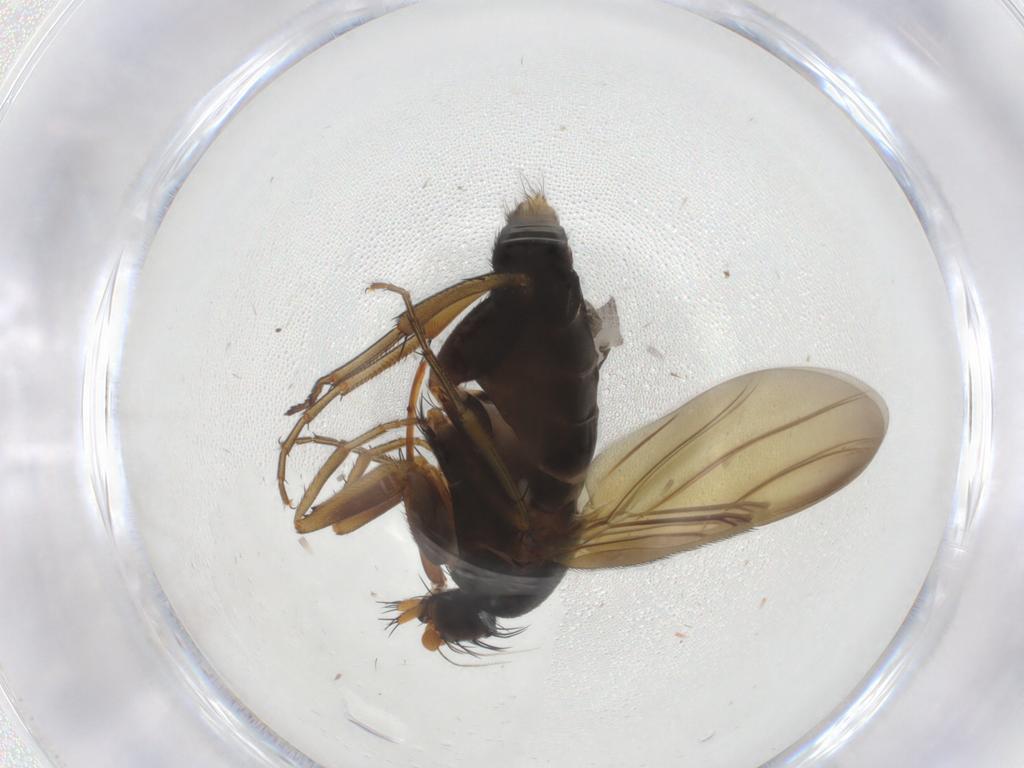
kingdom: Animalia
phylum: Arthropoda
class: Insecta
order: Diptera
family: Phoridae
